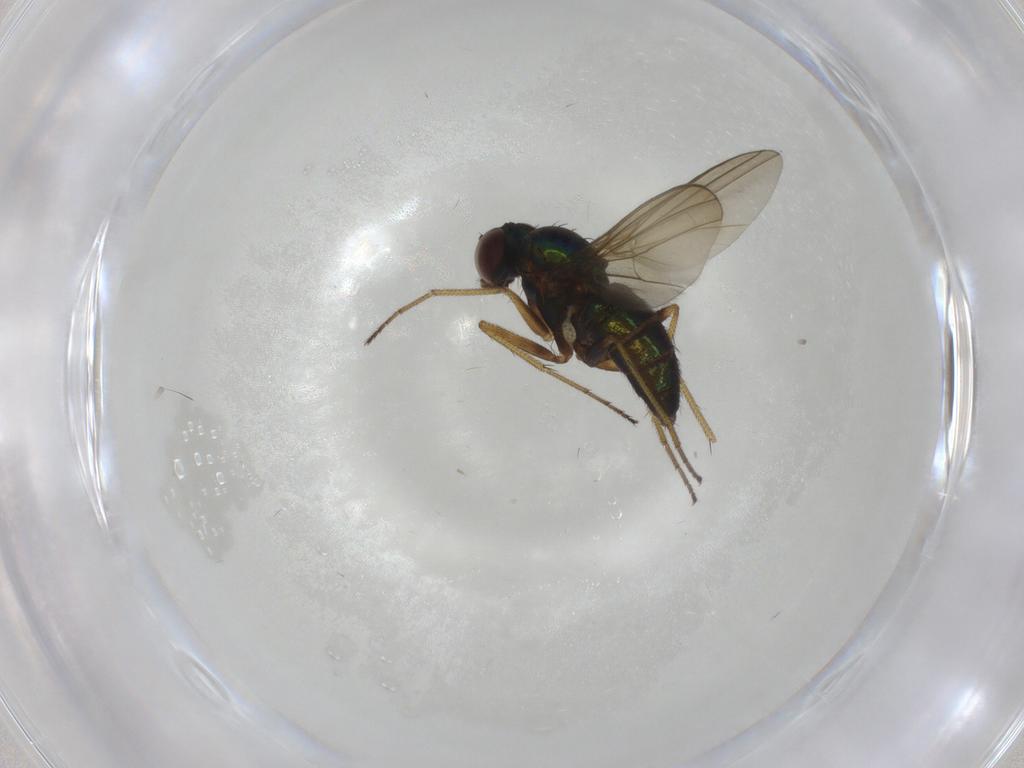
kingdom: Animalia
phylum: Arthropoda
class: Insecta
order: Diptera
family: Dolichopodidae
